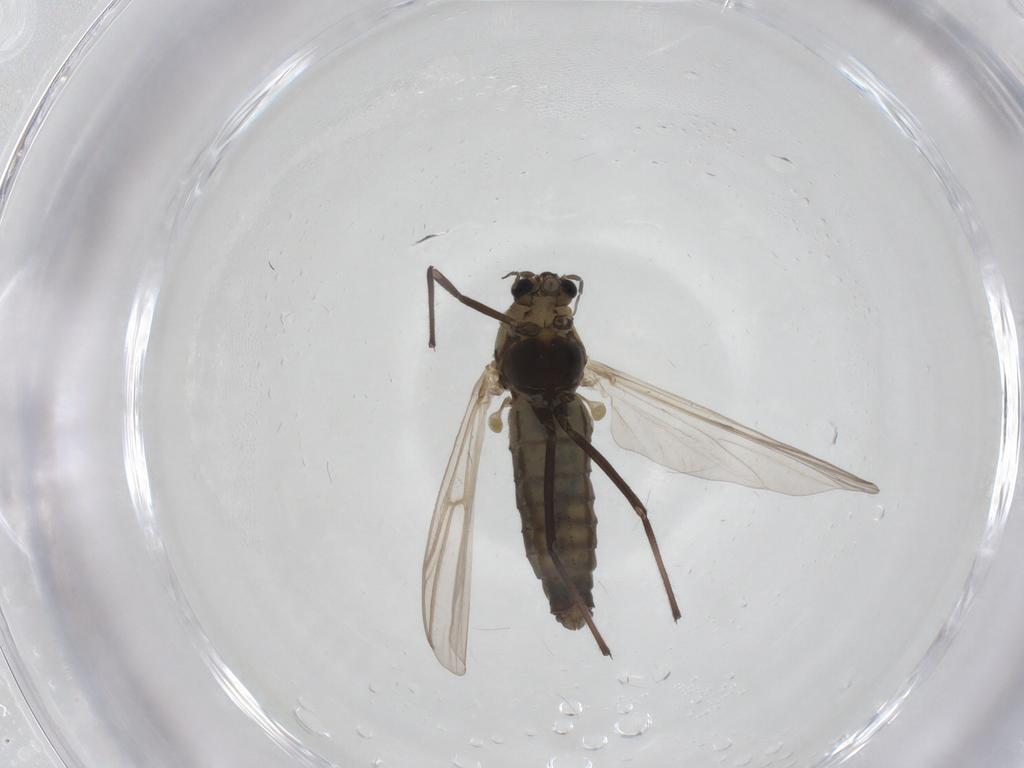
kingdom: Animalia
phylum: Arthropoda
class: Insecta
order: Diptera
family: Chironomidae
